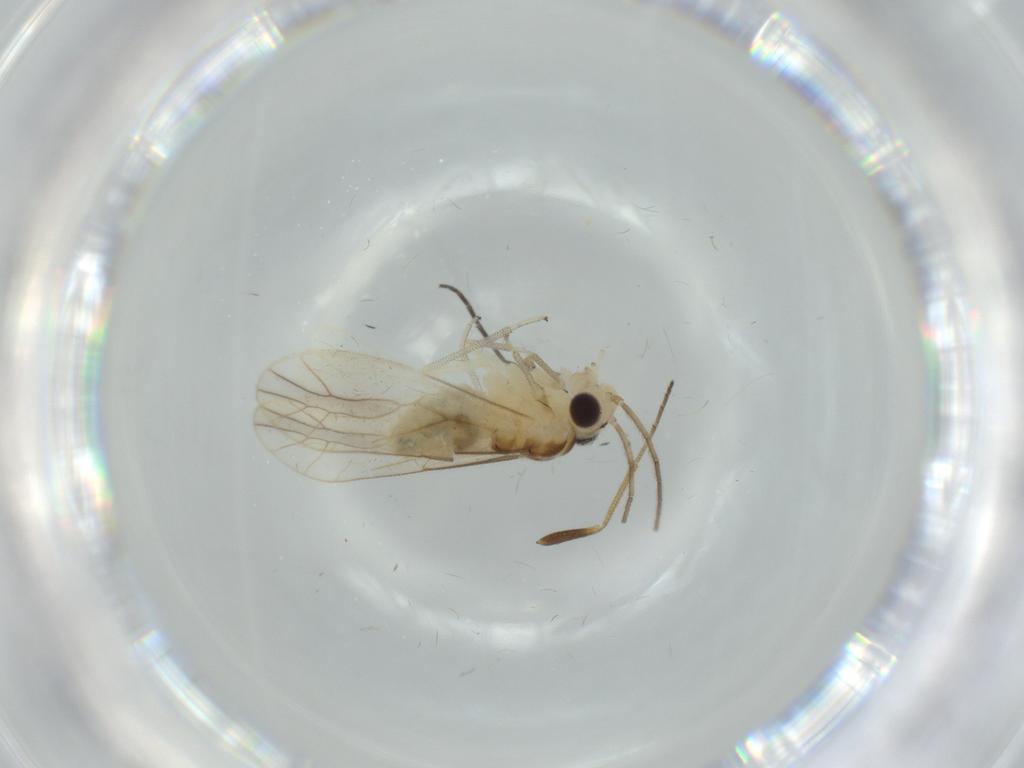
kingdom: Animalia
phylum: Arthropoda
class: Insecta
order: Psocodea
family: Caeciliusidae
